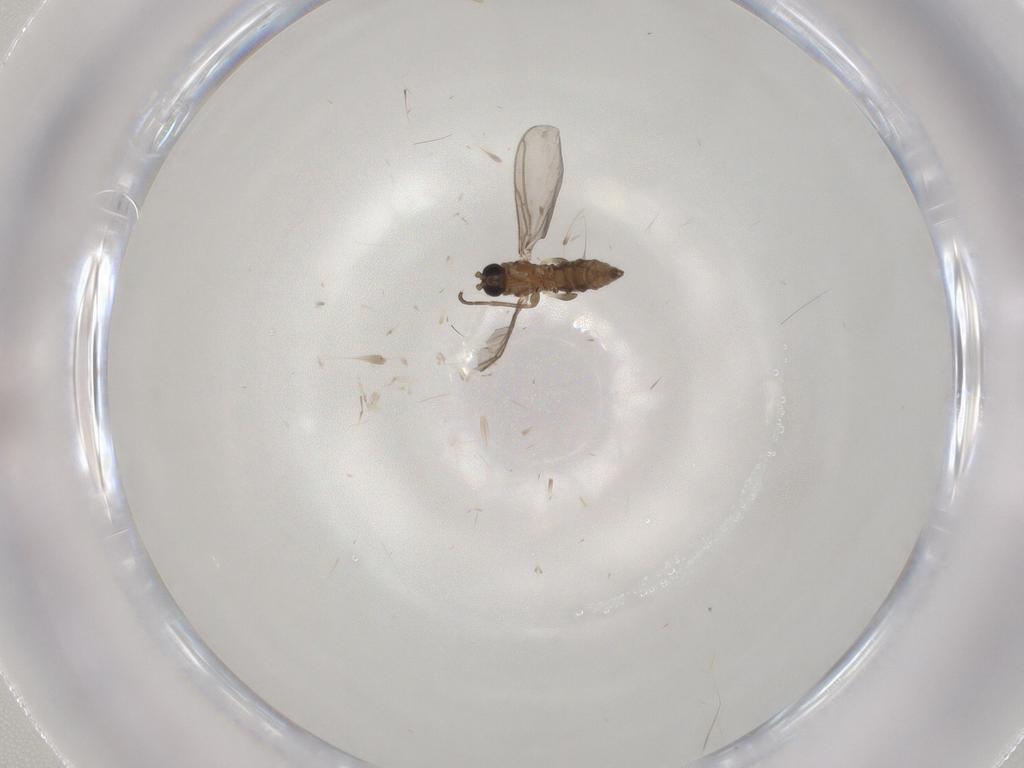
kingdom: Animalia
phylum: Arthropoda
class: Insecta
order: Diptera
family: Sciaridae
